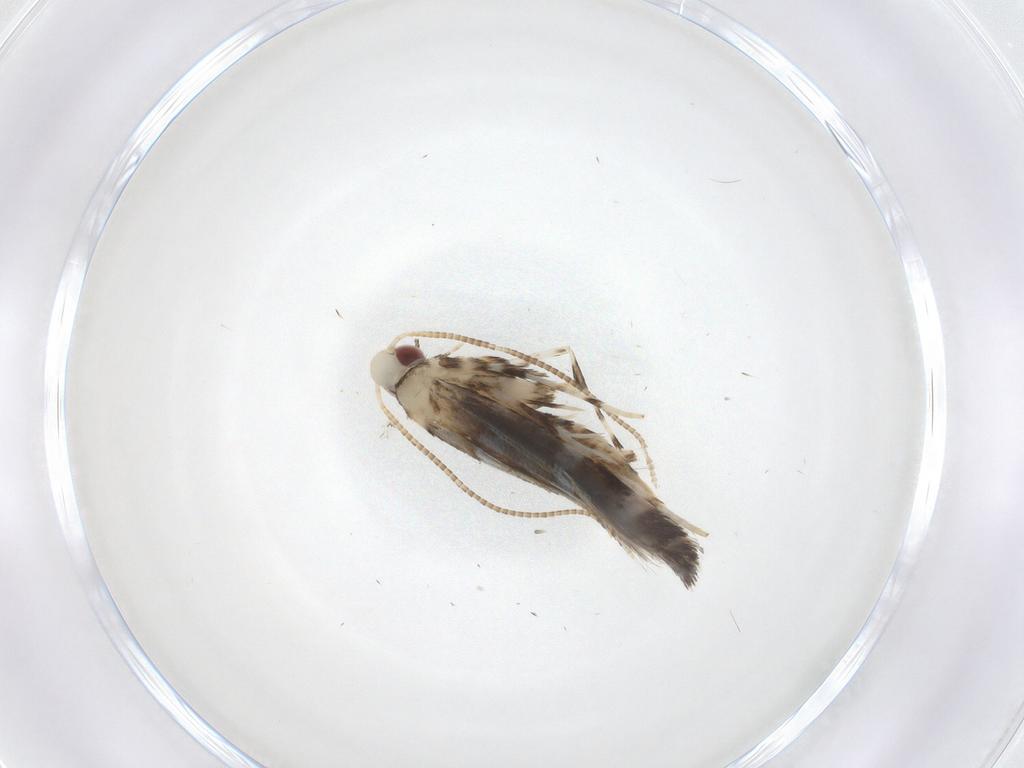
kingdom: Animalia
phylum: Arthropoda
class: Insecta
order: Lepidoptera
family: Gracillariidae
